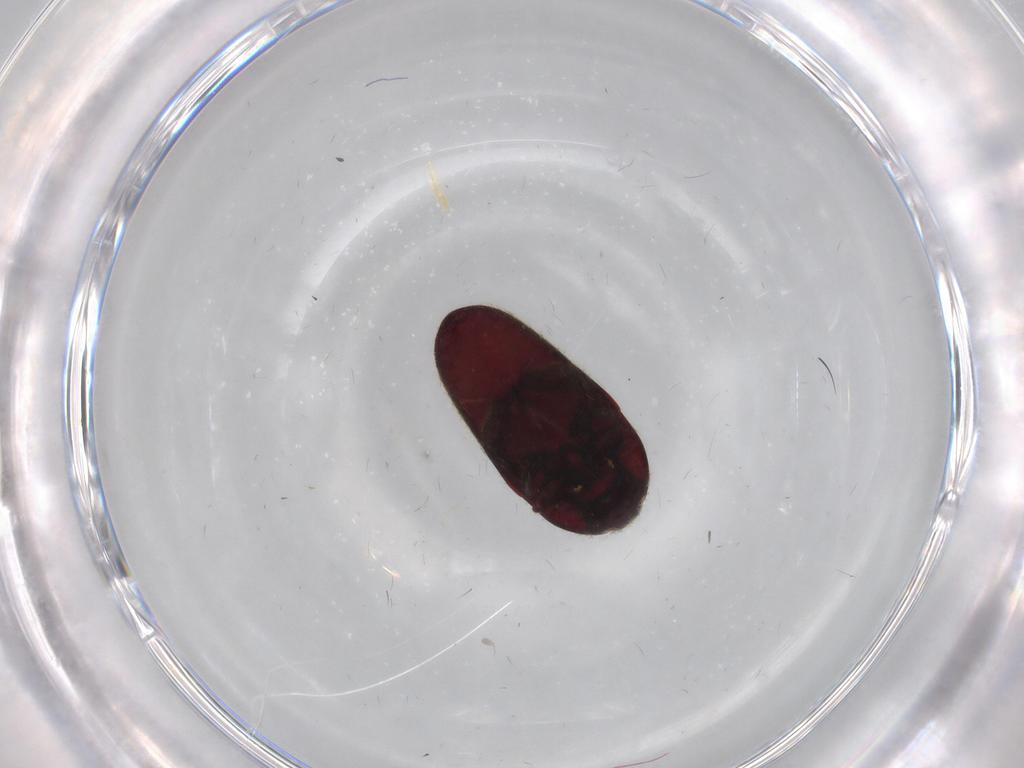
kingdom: Animalia
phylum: Arthropoda
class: Insecta
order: Coleoptera
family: Throscidae
